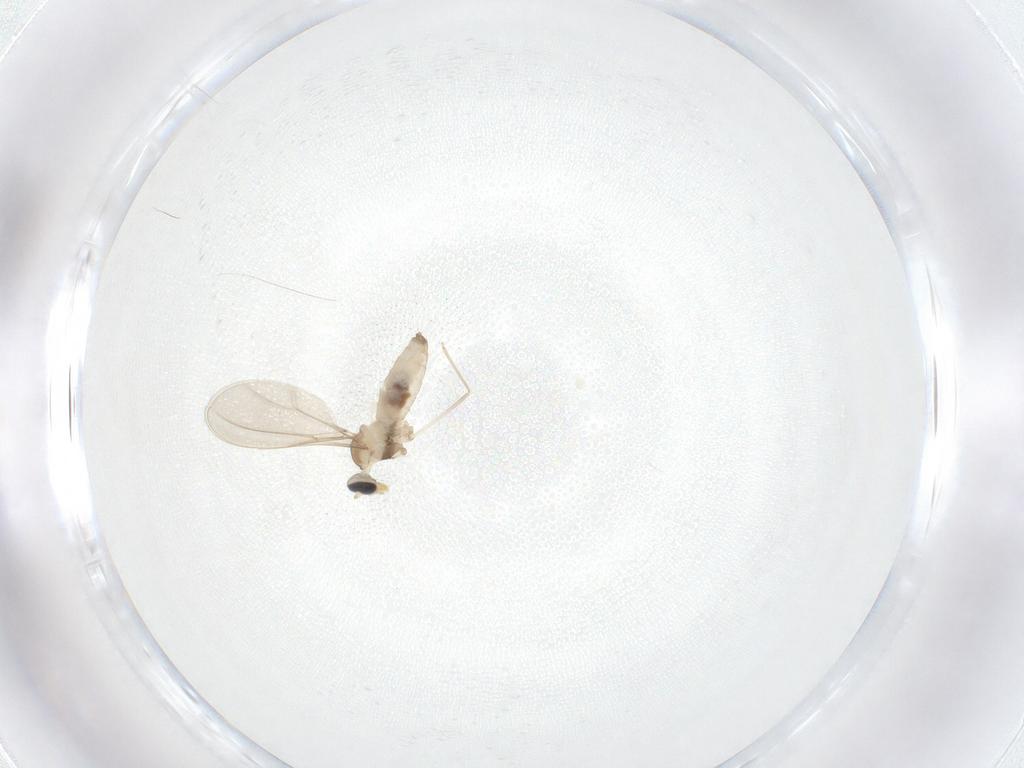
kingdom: Animalia
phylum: Arthropoda
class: Insecta
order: Diptera
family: Cecidomyiidae
